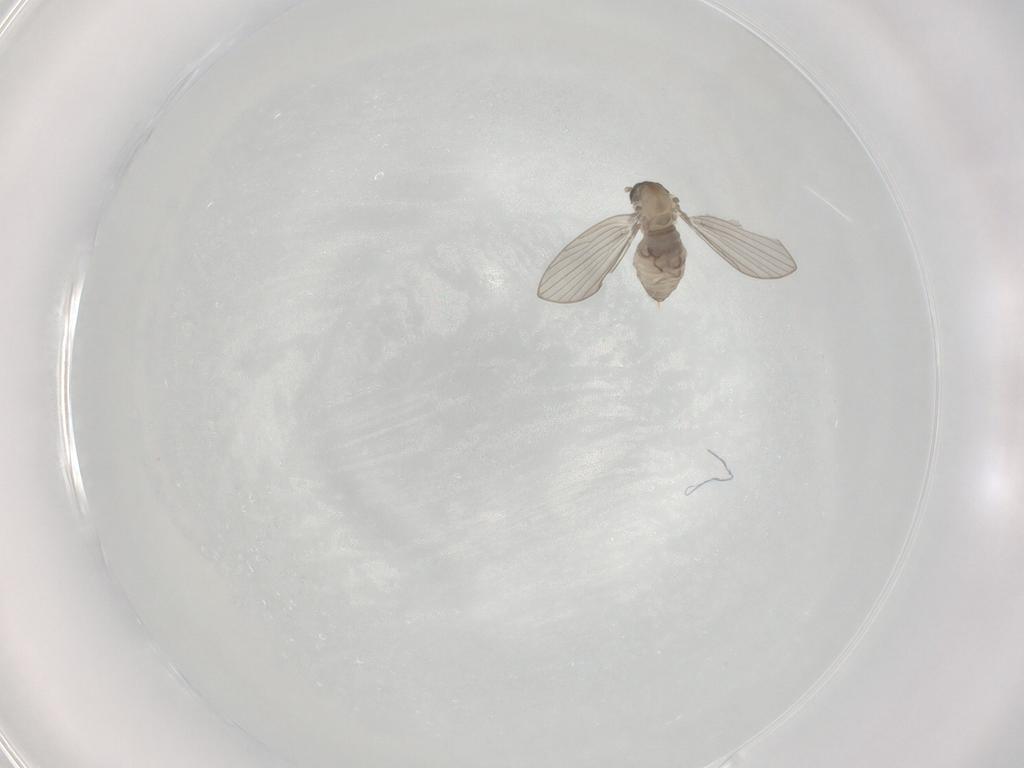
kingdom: Animalia
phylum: Arthropoda
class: Insecta
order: Diptera
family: Psychodidae
